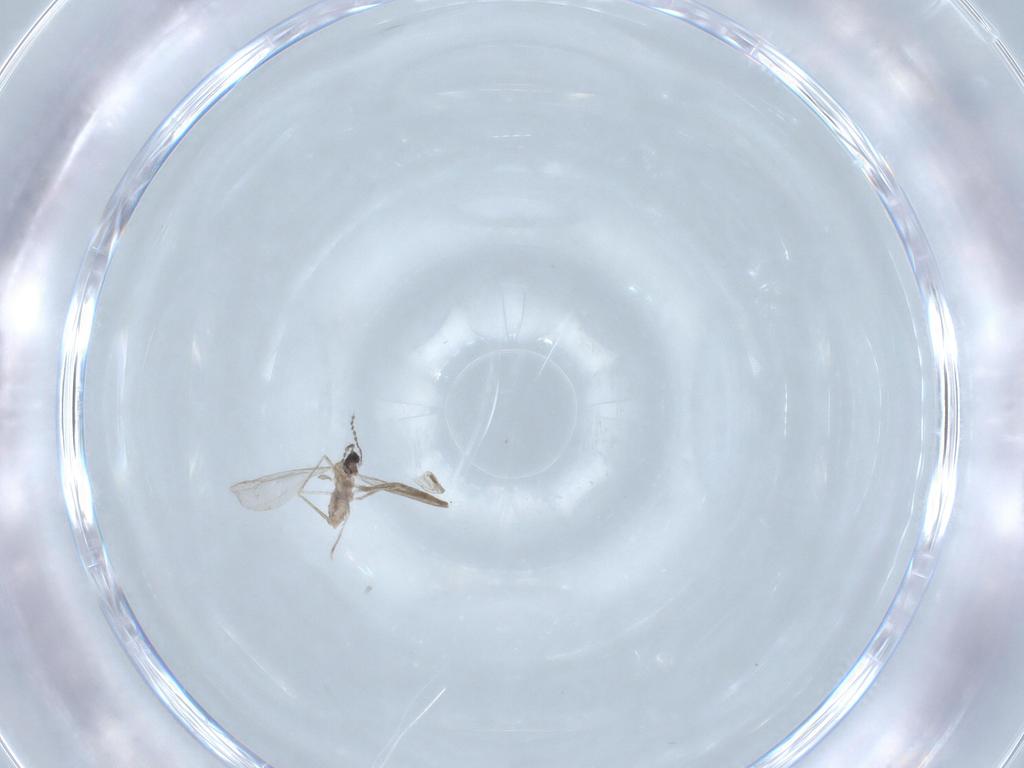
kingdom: Animalia
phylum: Arthropoda
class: Insecta
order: Diptera
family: Cecidomyiidae
